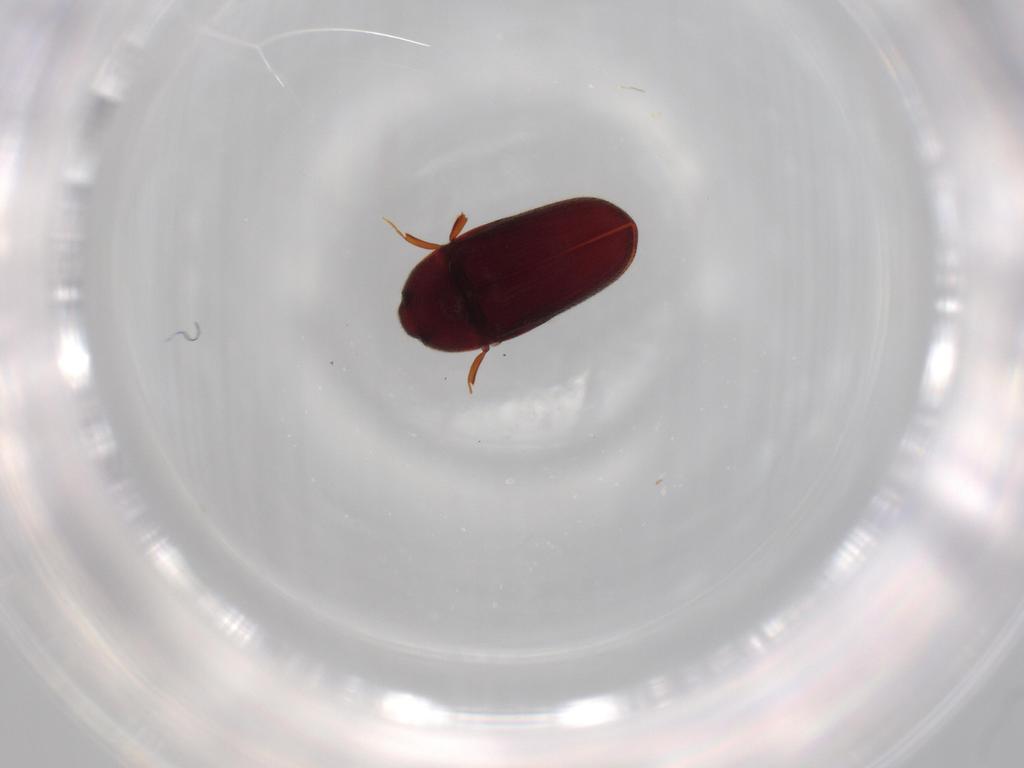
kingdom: Animalia
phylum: Arthropoda
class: Insecta
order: Coleoptera
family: Throscidae
